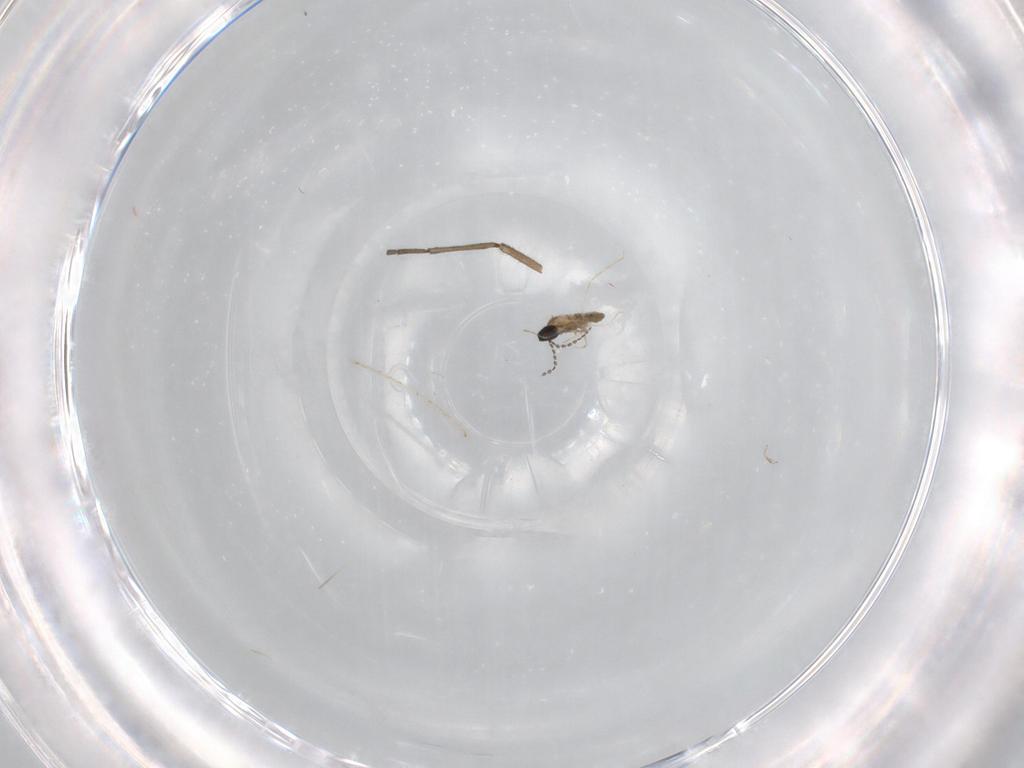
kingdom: Animalia
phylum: Arthropoda
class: Insecta
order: Diptera
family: Cecidomyiidae
